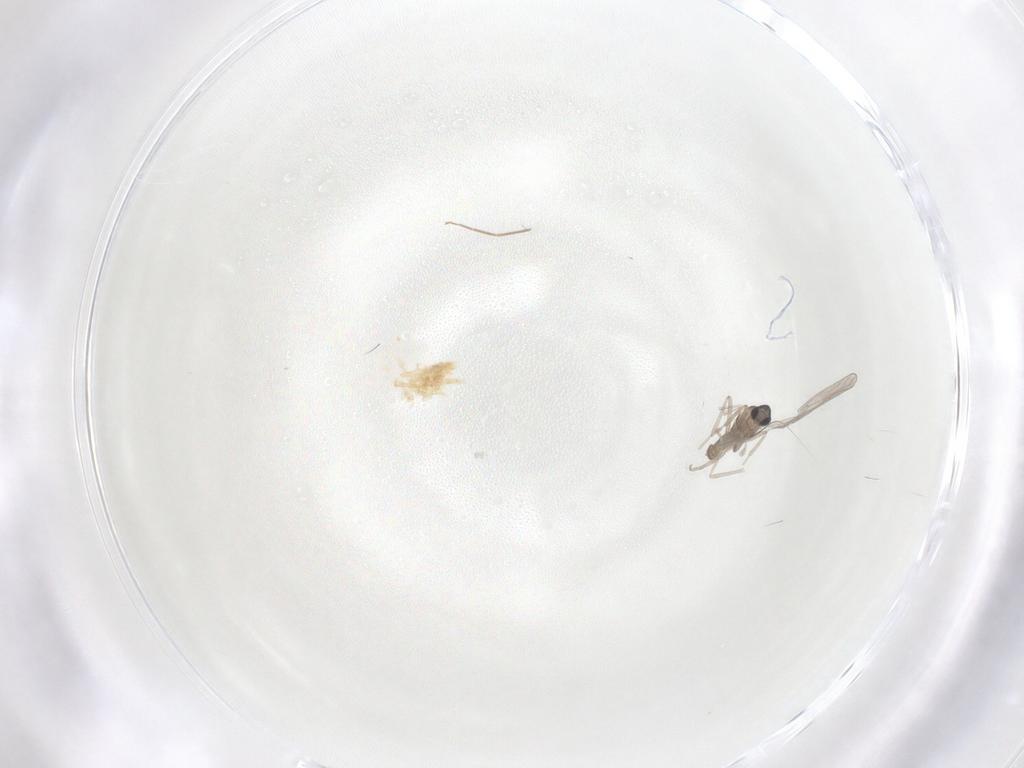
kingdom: Animalia
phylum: Arthropoda
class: Insecta
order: Diptera
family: Cecidomyiidae
